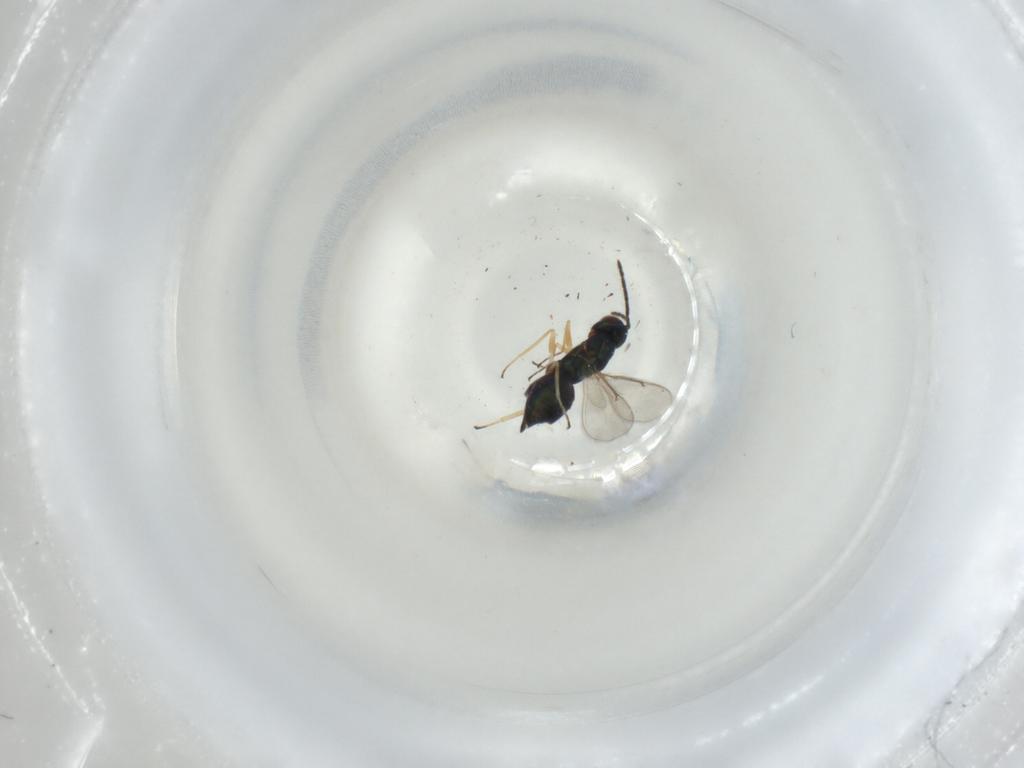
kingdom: Animalia
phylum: Arthropoda
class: Insecta
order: Hymenoptera
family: Eulophidae
